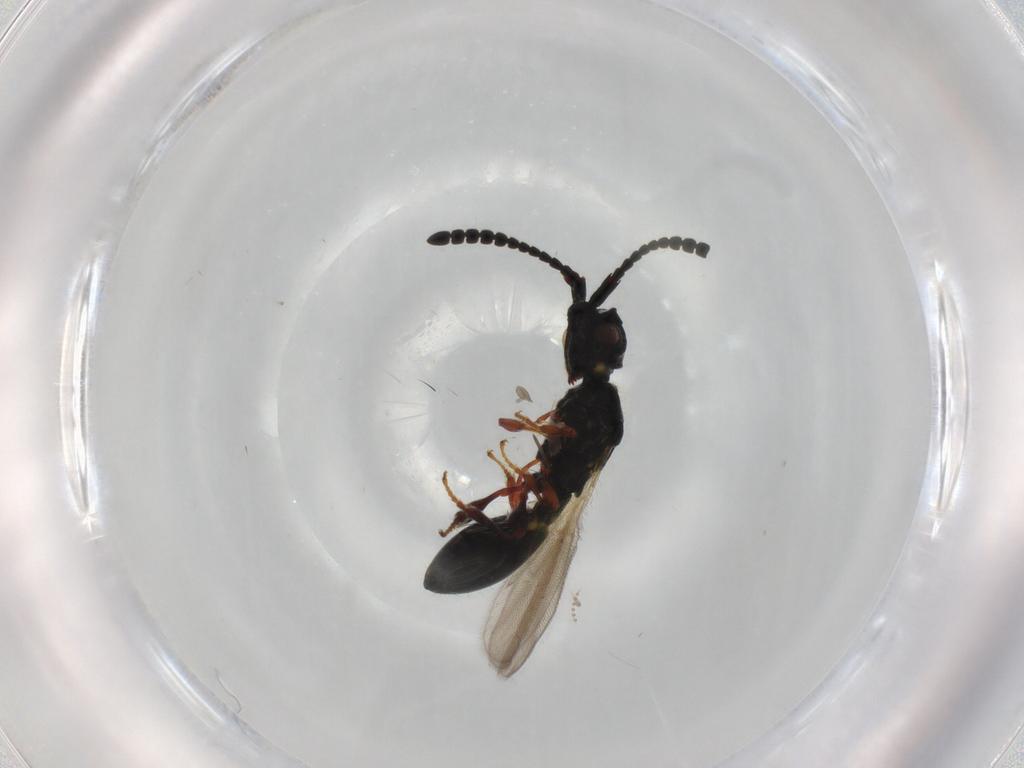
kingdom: Animalia
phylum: Arthropoda
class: Insecta
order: Hymenoptera
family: Diapriidae
